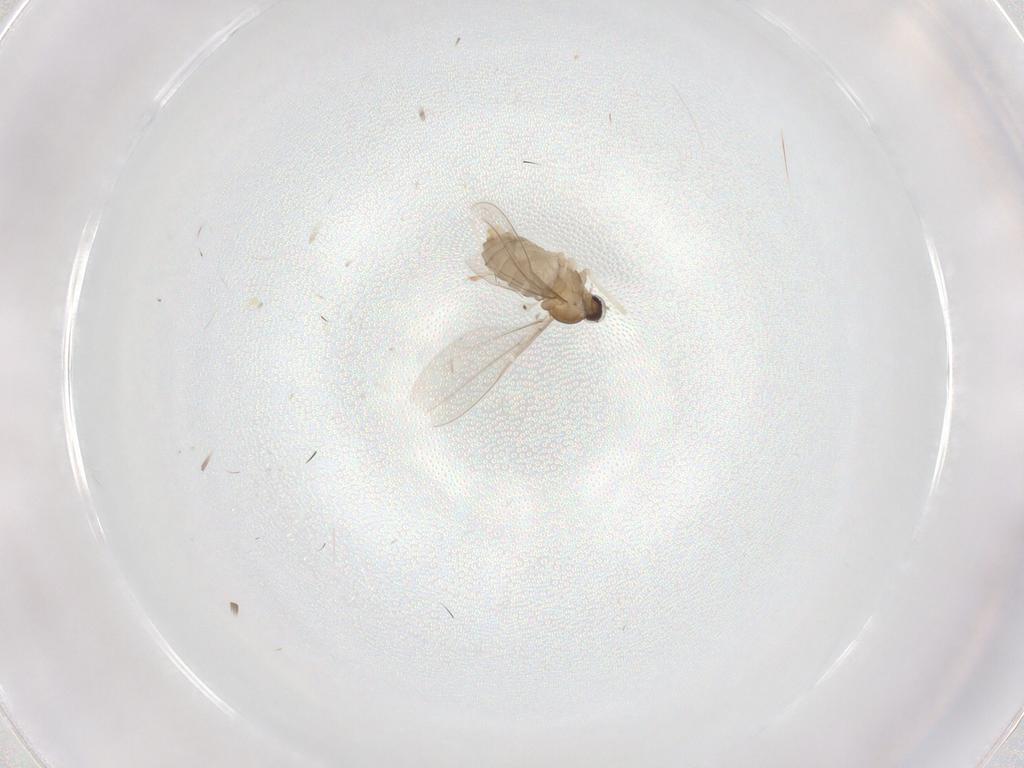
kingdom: Animalia
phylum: Arthropoda
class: Insecta
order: Diptera
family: Cecidomyiidae
